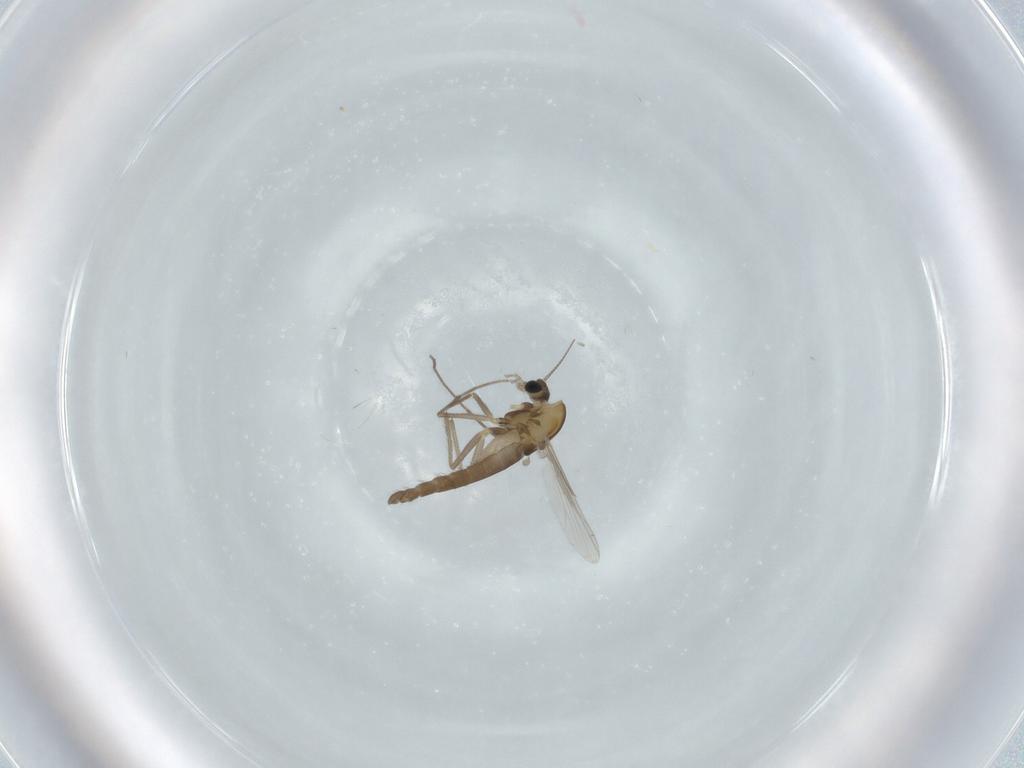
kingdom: Animalia
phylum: Arthropoda
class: Insecta
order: Diptera
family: Chironomidae
